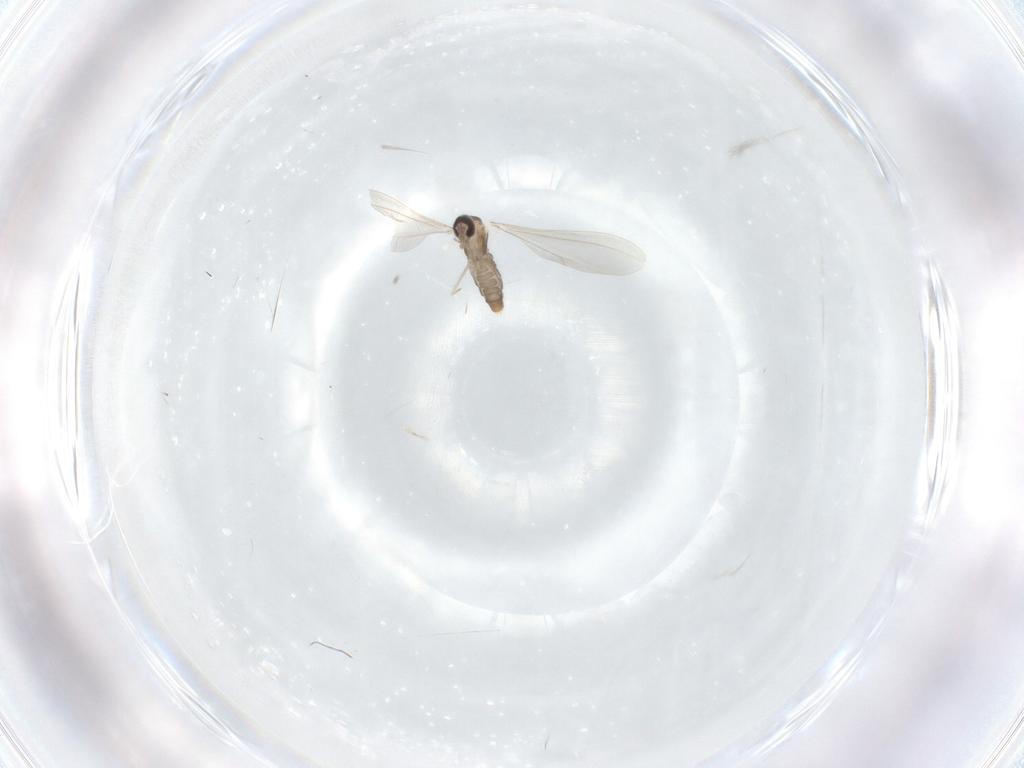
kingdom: Animalia
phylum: Arthropoda
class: Insecta
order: Diptera
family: Cecidomyiidae
